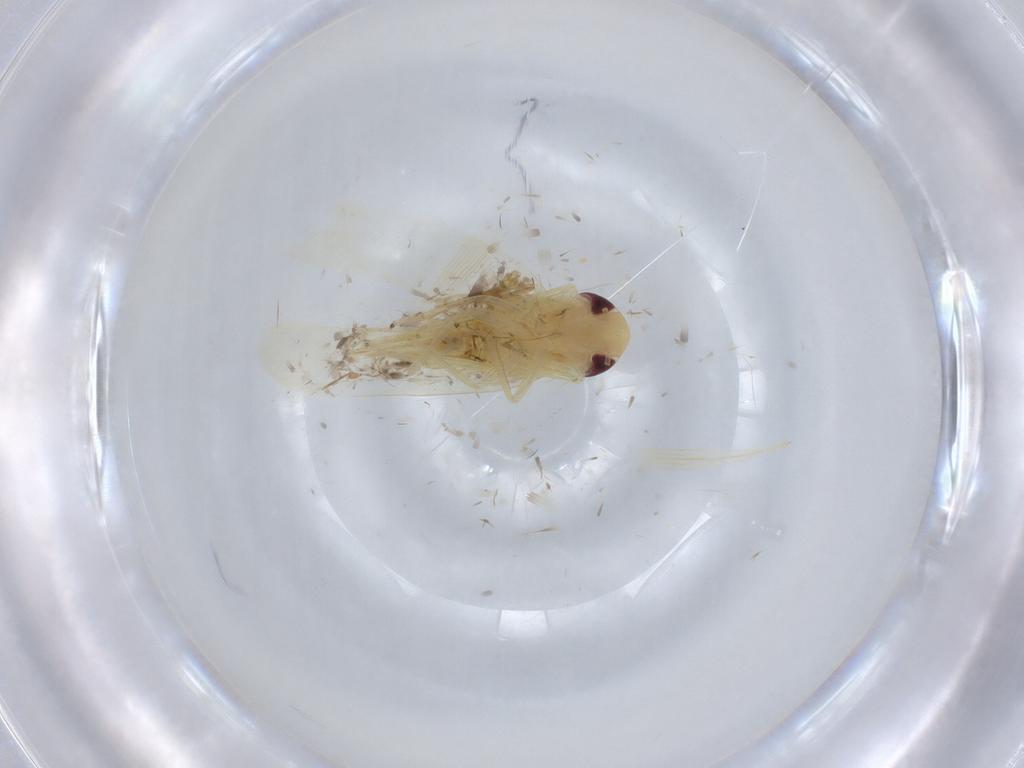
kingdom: Animalia
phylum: Arthropoda
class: Insecta
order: Hemiptera
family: Cicadellidae
